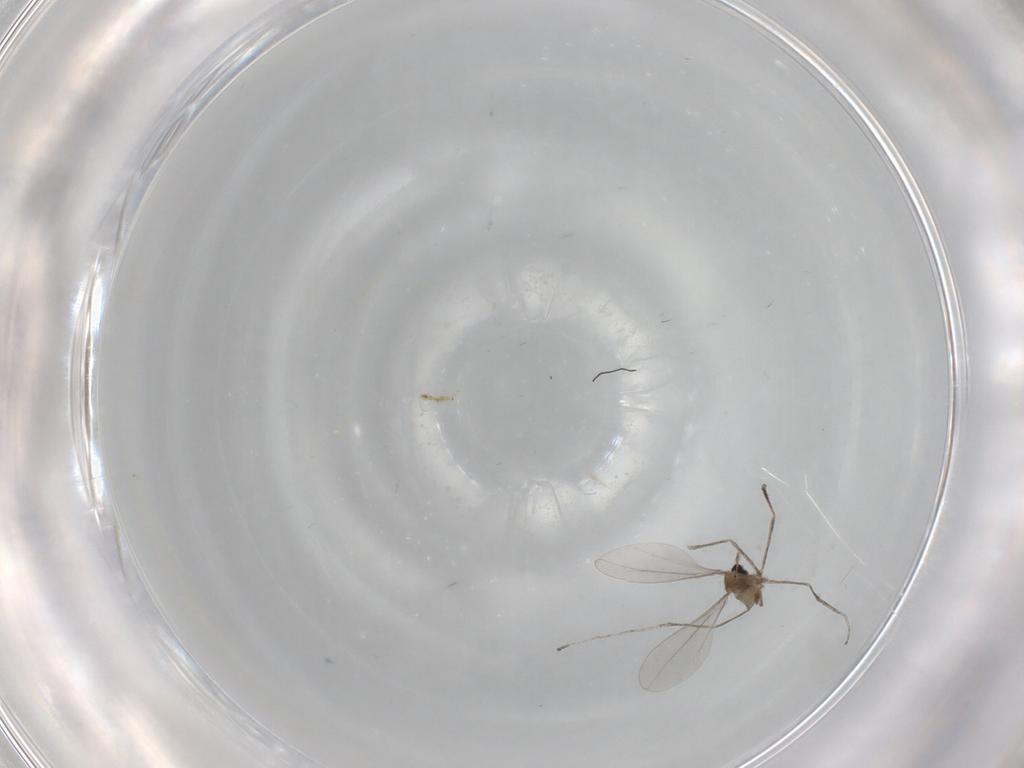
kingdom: Animalia
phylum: Arthropoda
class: Insecta
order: Diptera
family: Cecidomyiidae
